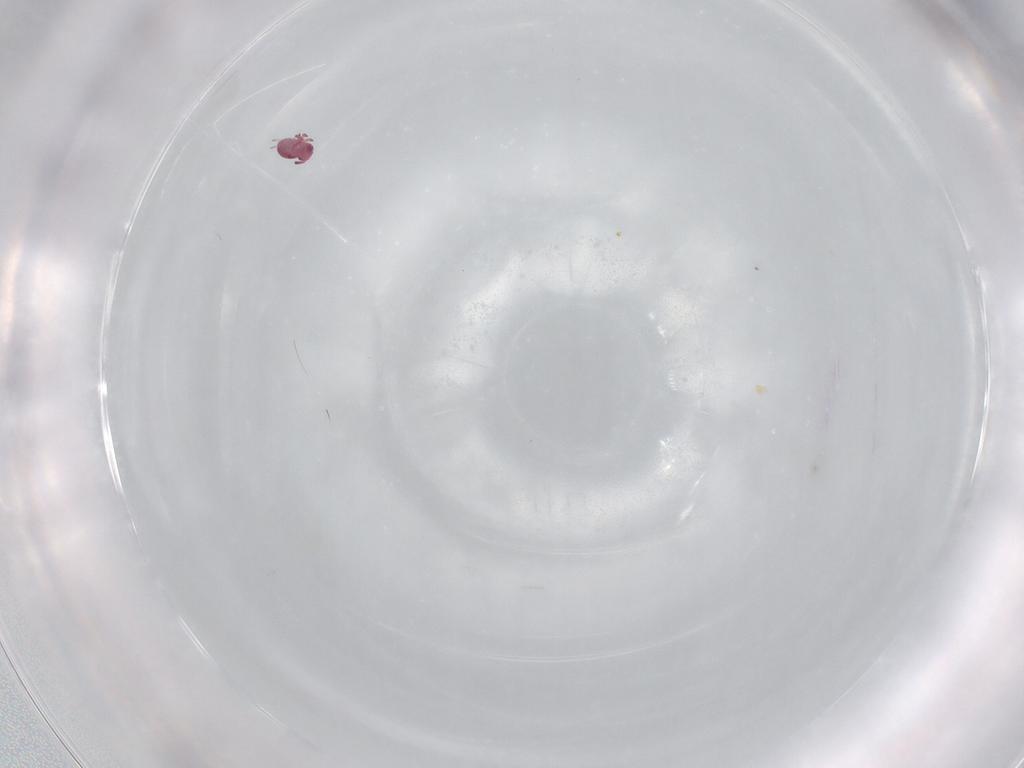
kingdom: Animalia
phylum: Arthropoda
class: Collembola
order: Symphypleona
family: Sminthurididae
